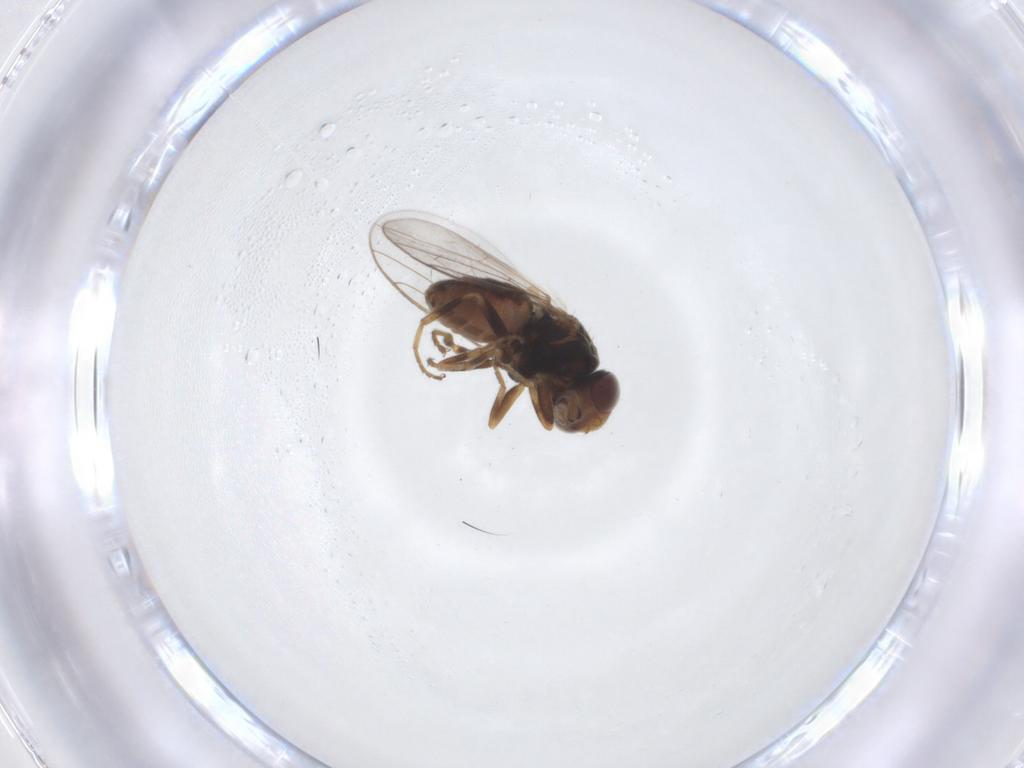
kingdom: Animalia
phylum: Arthropoda
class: Insecta
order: Diptera
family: Chloropidae
